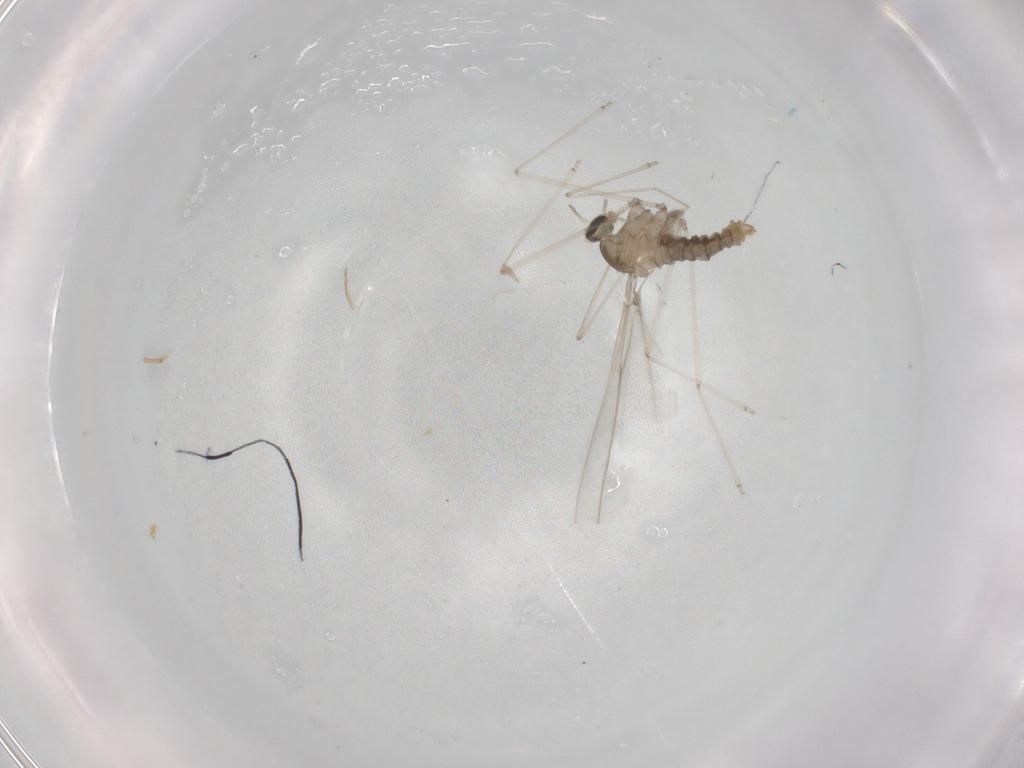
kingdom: Animalia
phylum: Arthropoda
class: Insecta
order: Diptera
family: Cecidomyiidae
